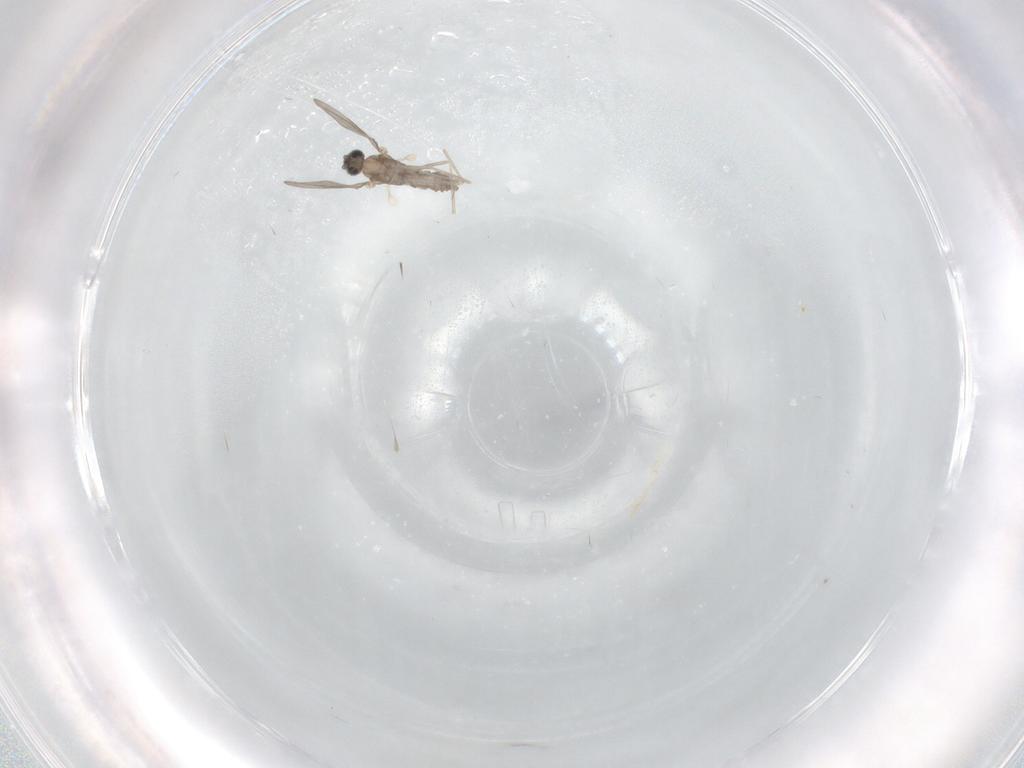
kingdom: Animalia
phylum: Arthropoda
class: Insecta
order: Diptera
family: Cecidomyiidae
